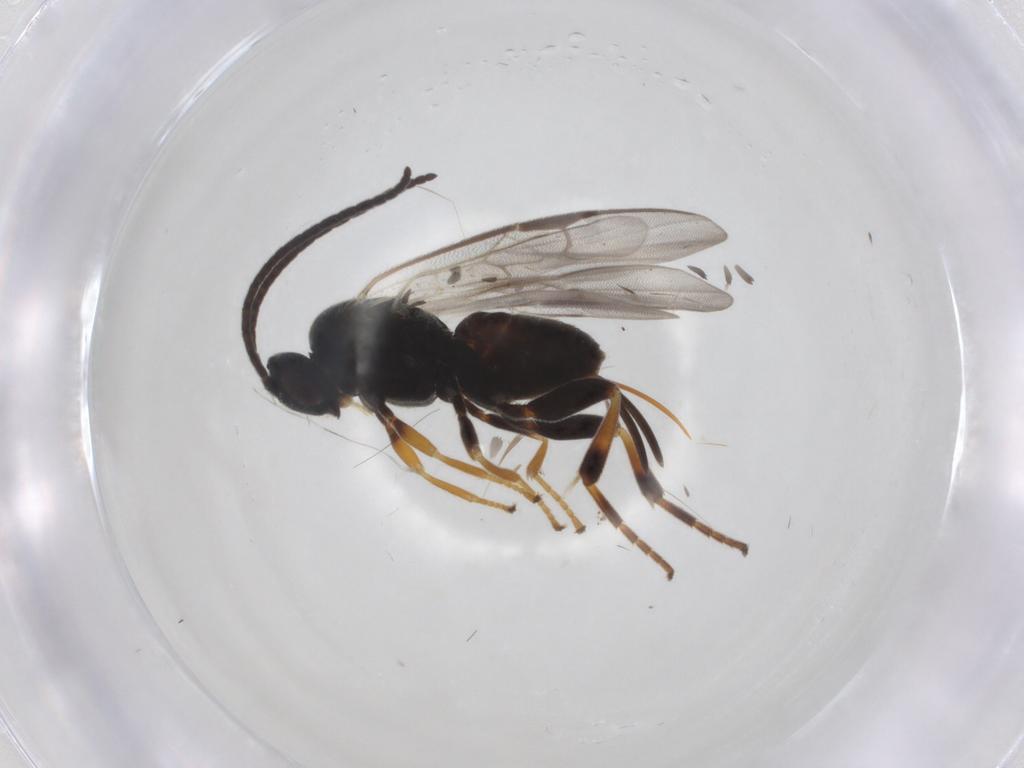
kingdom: Animalia
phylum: Arthropoda
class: Insecta
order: Hymenoptera
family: Braconidae
